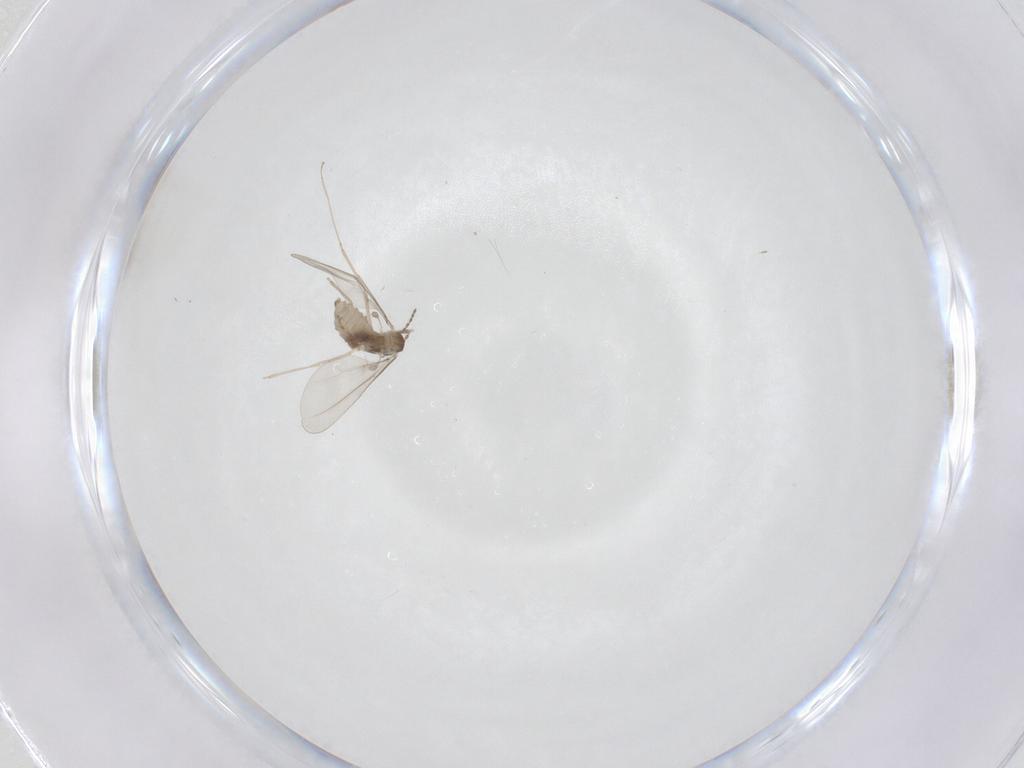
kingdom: Animalia
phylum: Arthropoda
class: Insecta
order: Diptera
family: Cecidomyiidae
